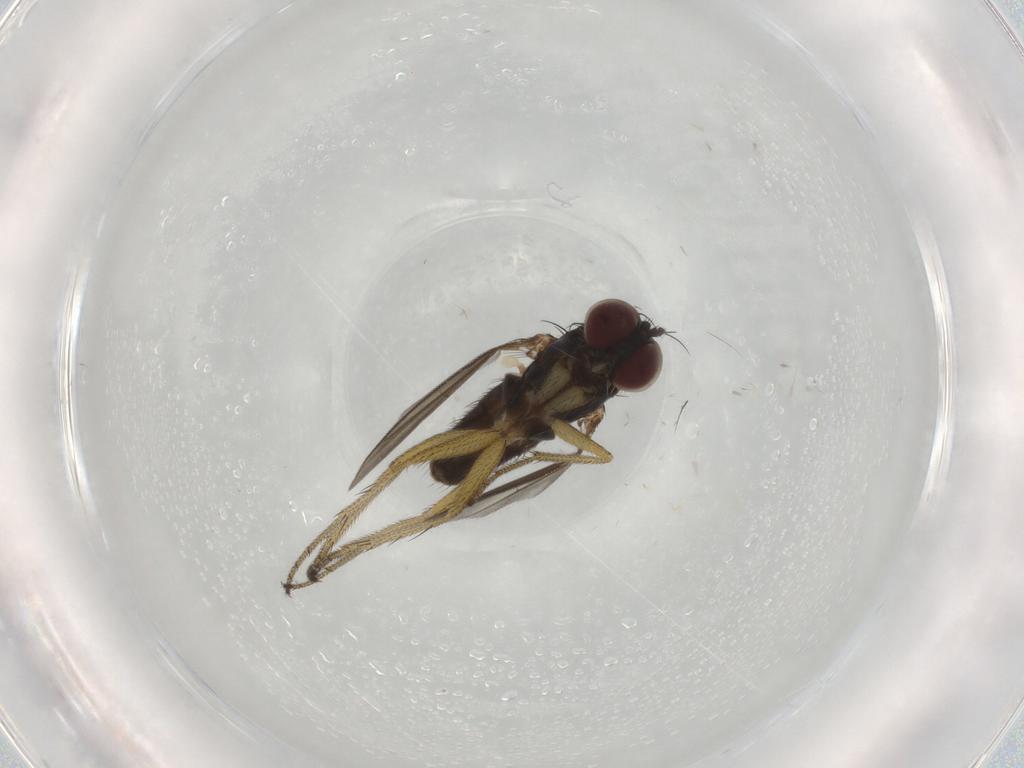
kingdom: Animalia
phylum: Arthropoda
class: Insecta
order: Diptera
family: Dolichopodidae
